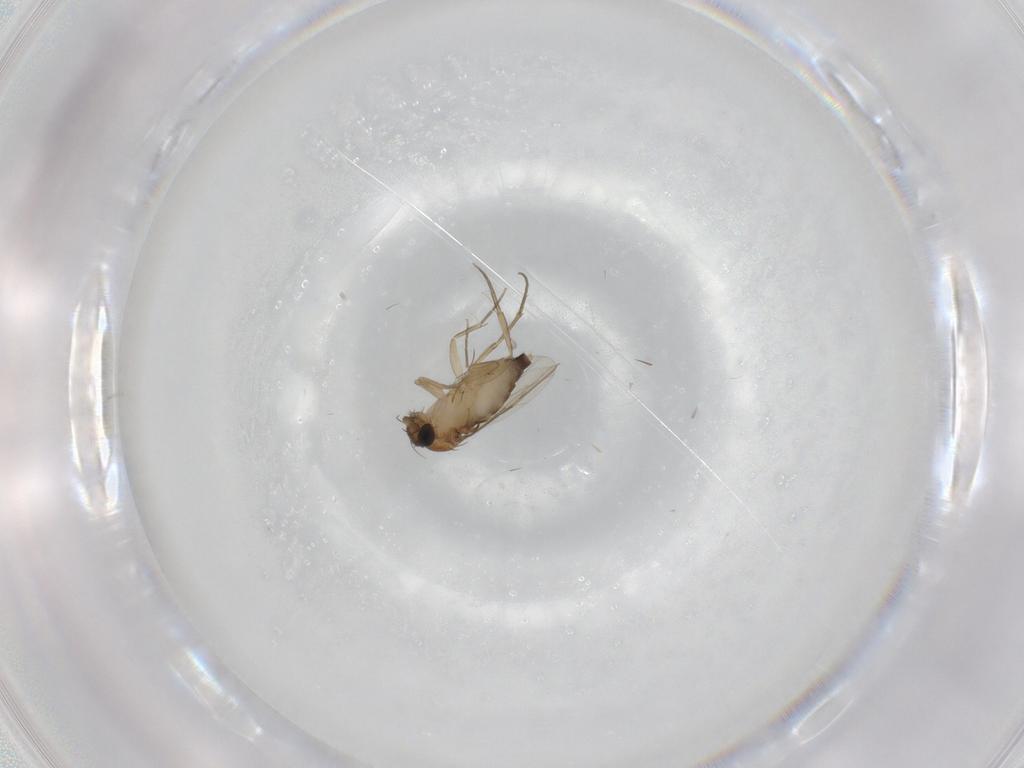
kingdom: Animalia
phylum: Arthropoda
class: Insecta
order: Diptera
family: Phoridae
